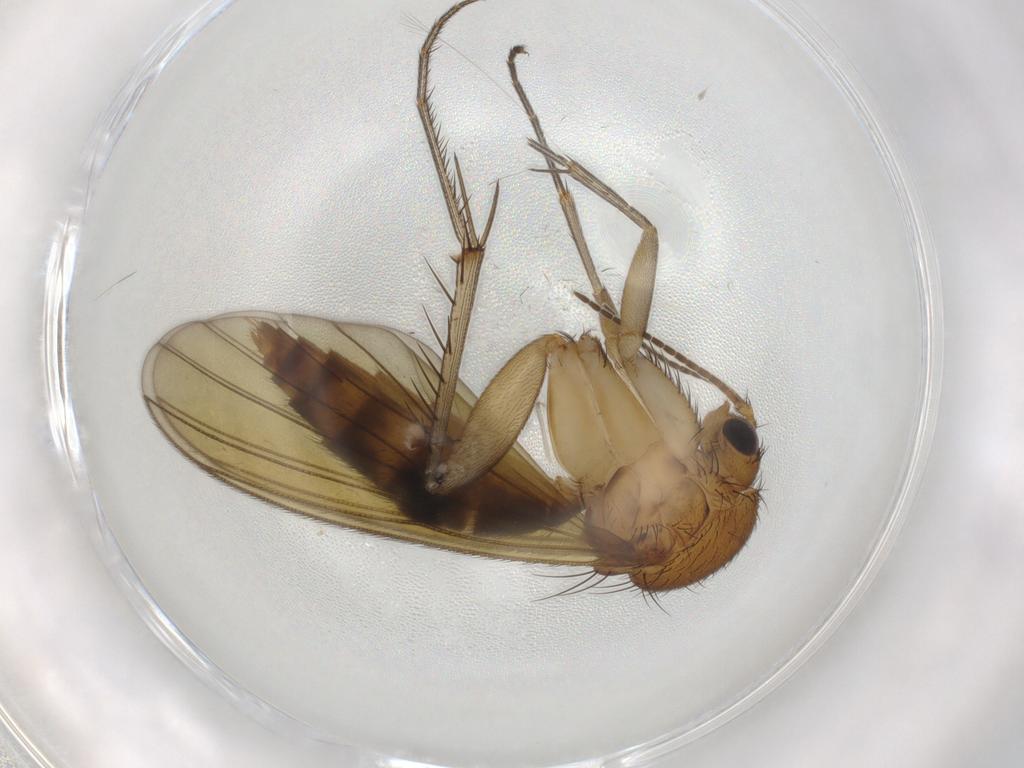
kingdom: Animalia
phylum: Arthropoda
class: Insecta
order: Diptera
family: Mycetophilidae
